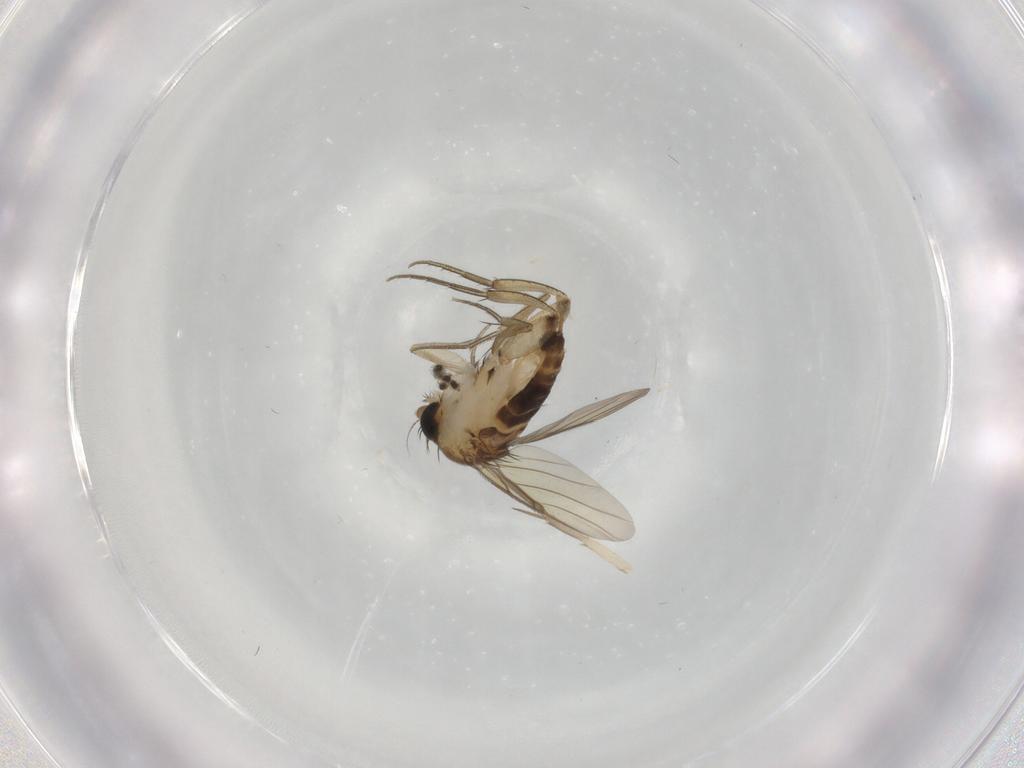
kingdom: Animalia
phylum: Arthropoda
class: Insecta
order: Diptera
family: Phoridae
